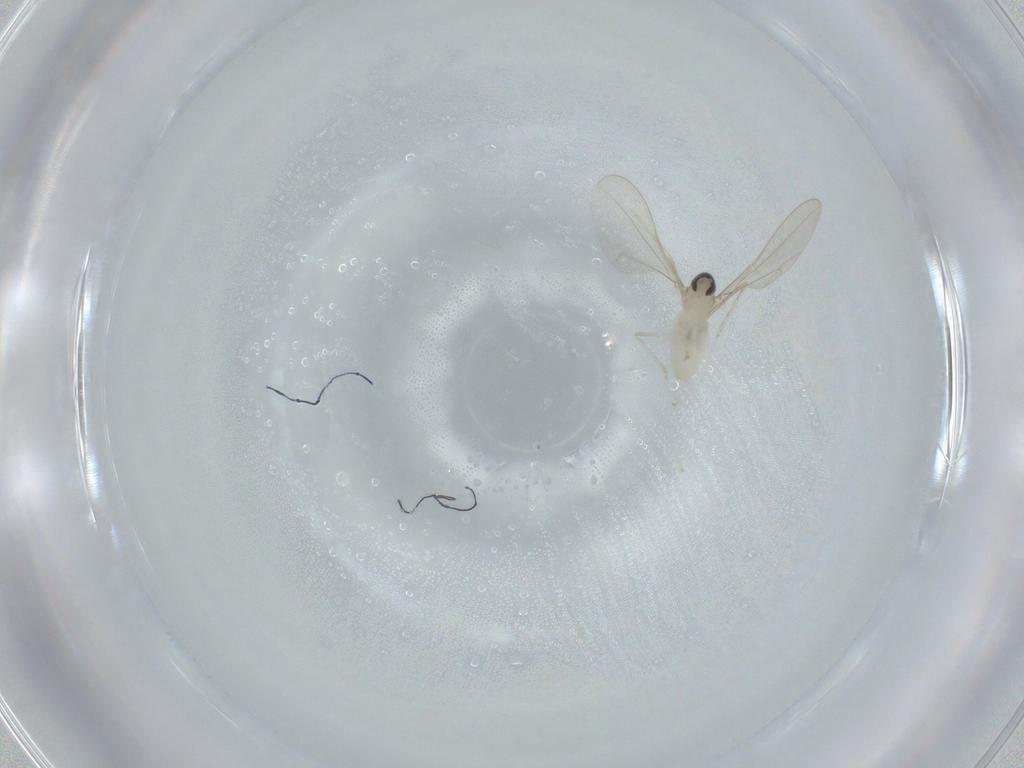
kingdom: Animalia
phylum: Arthropoda
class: Insecta
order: Diptera
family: Cecidomyiidae
